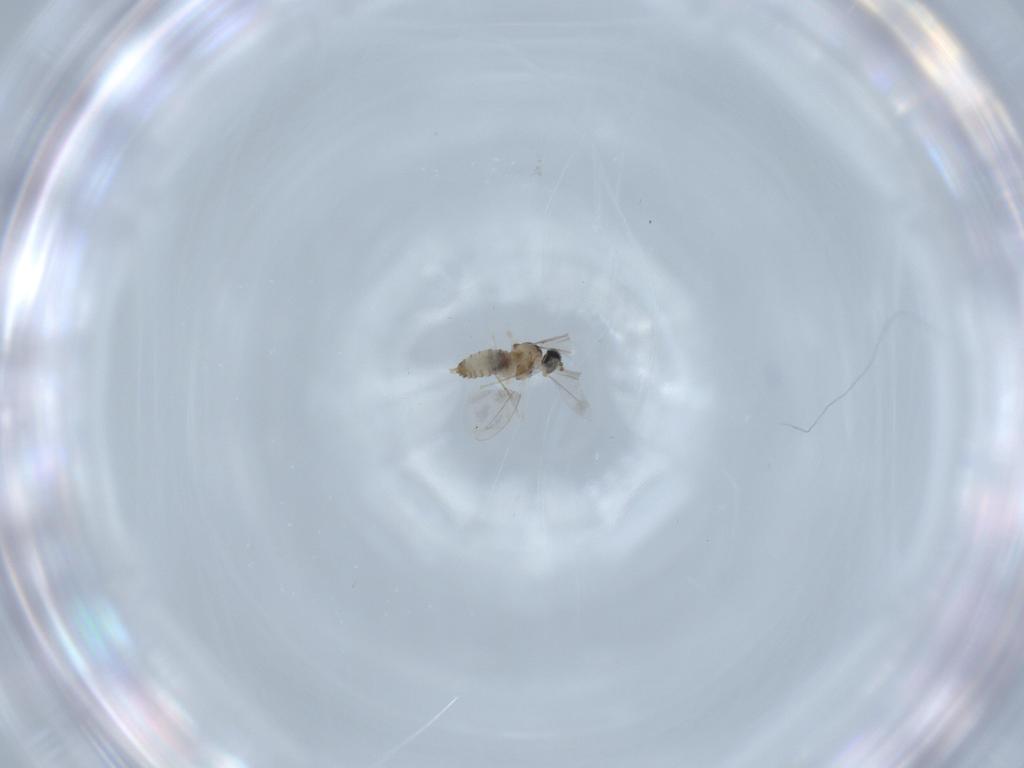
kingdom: Animalia
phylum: Arthropoda
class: Insecta
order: Diptera
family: Cecidomyiidae
